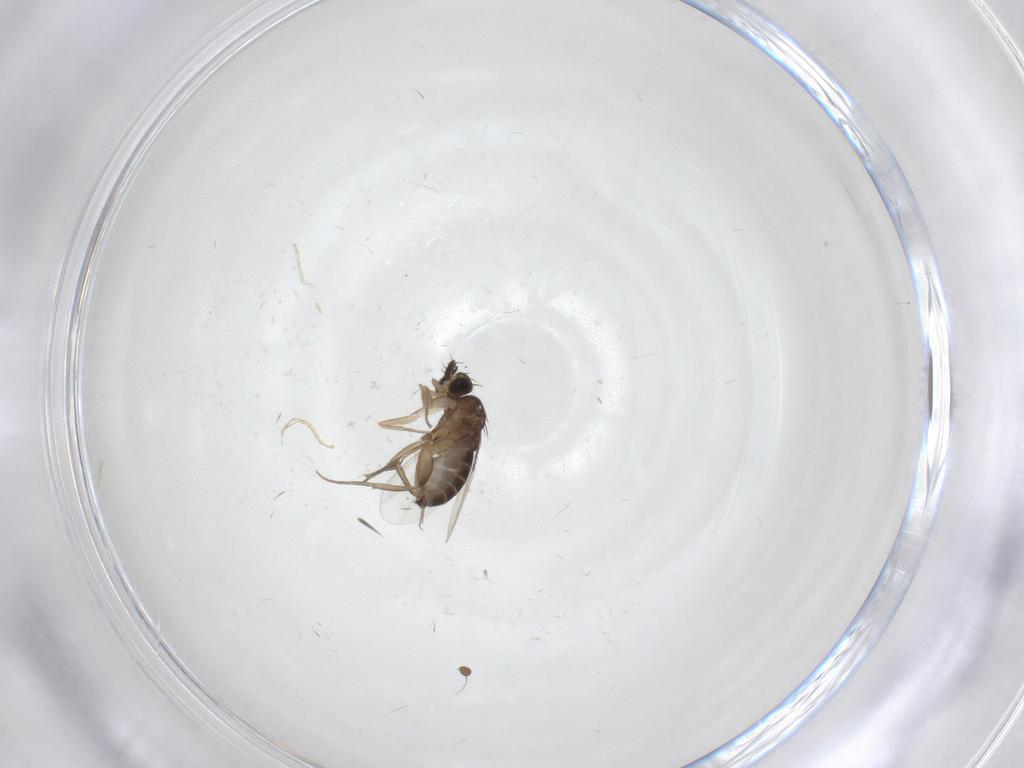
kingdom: Animalia
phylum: Arthropoda
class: Insecta
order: Diptera
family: Phoridae
